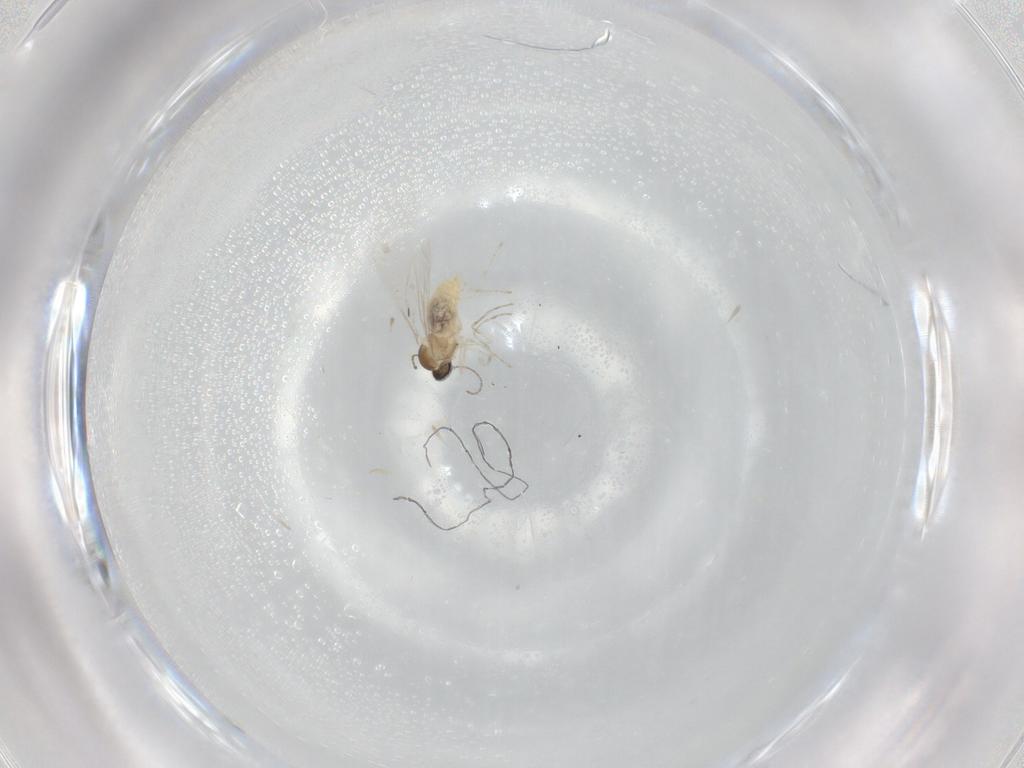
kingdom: Animalia
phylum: Arthropoda
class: Insecta
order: Diptera
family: Cecidomyiidae
